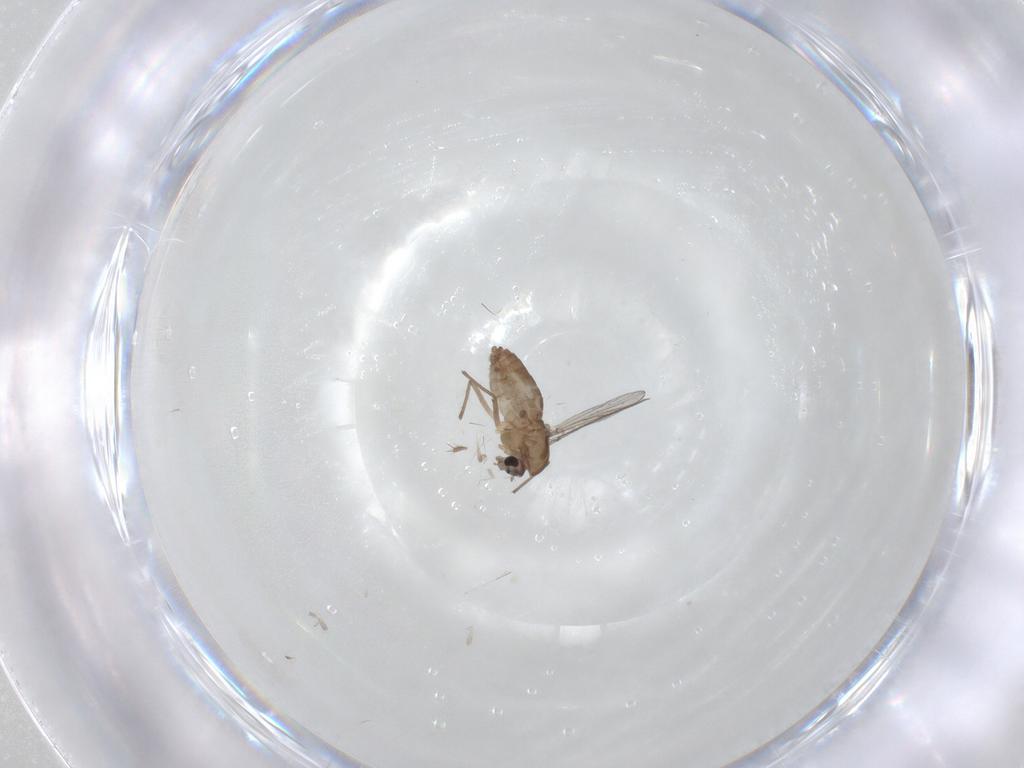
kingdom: Animalia
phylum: Arthropoda
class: Insecta
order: Diptera
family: Chironomidae
